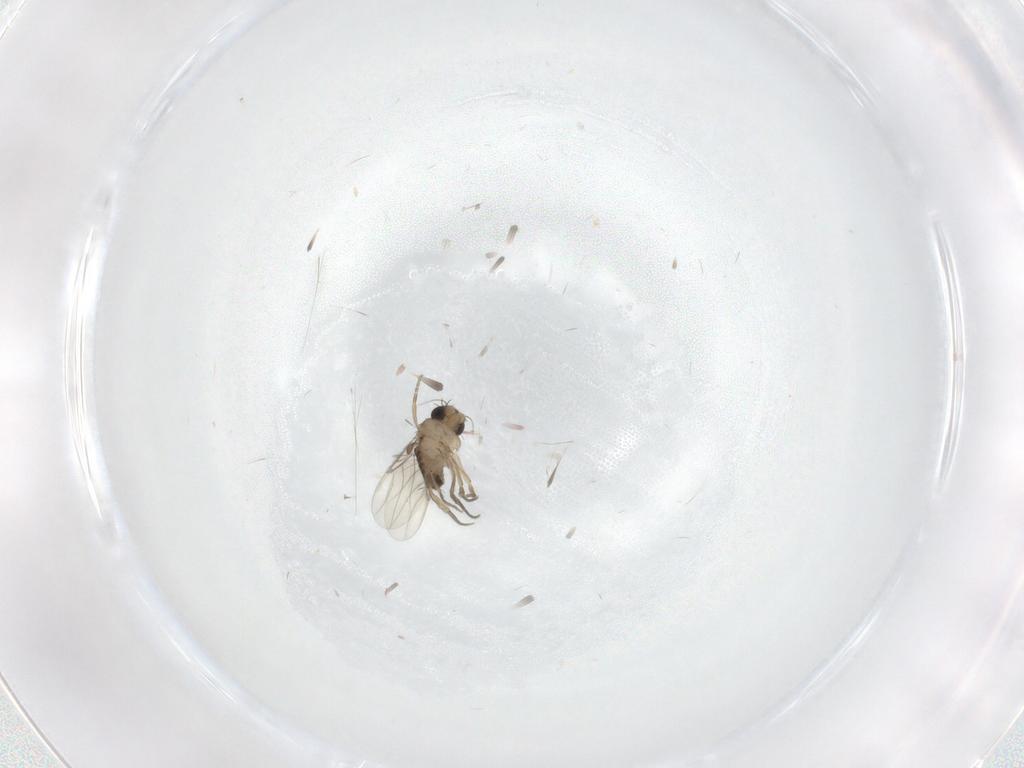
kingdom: Animalia
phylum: Arthropoda
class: Insecta
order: Diptera
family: Phoridae
